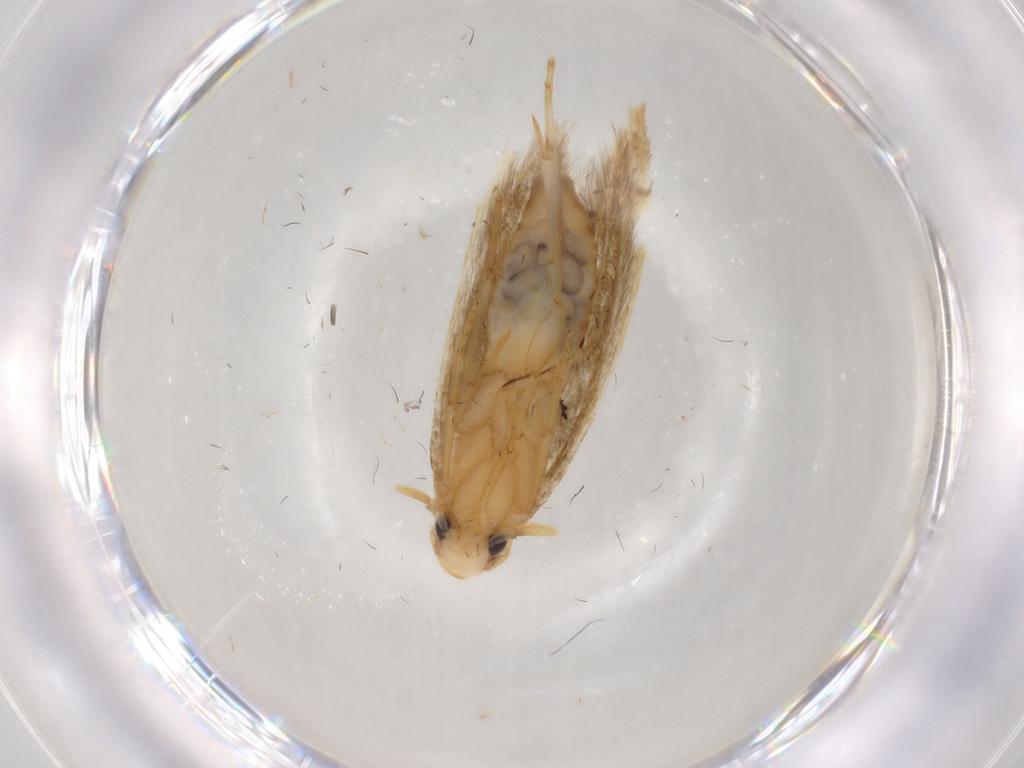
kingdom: Animalia
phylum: Arthropoda
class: Insecta
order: Lepidoptera
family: Tineidae
